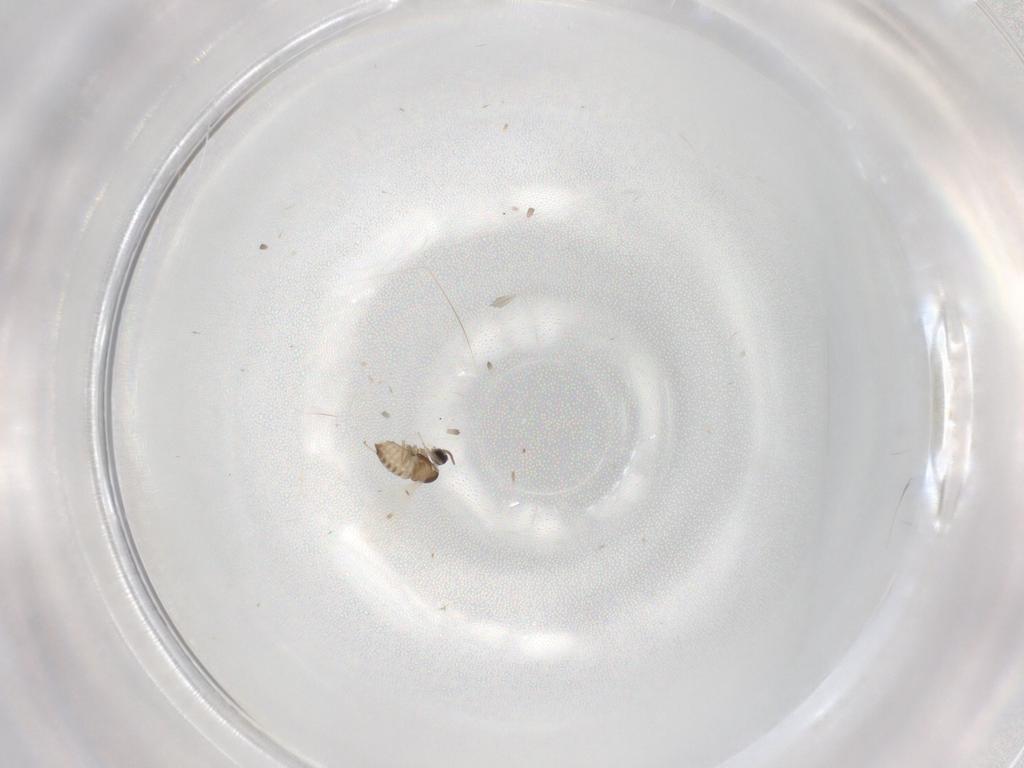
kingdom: Animalia
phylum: Arthropoda
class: Insecta
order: Diptera
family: Cecidomyiidae
